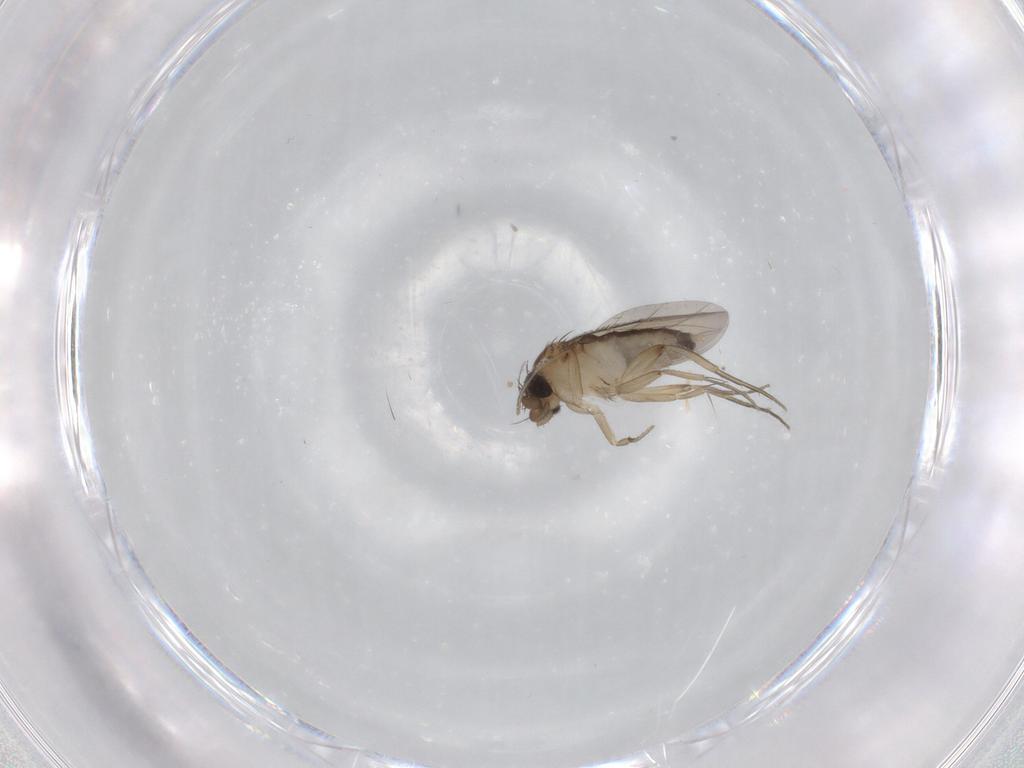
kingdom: Animalia
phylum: Arthropoda
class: Insecta
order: Diptera
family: Phoridae
